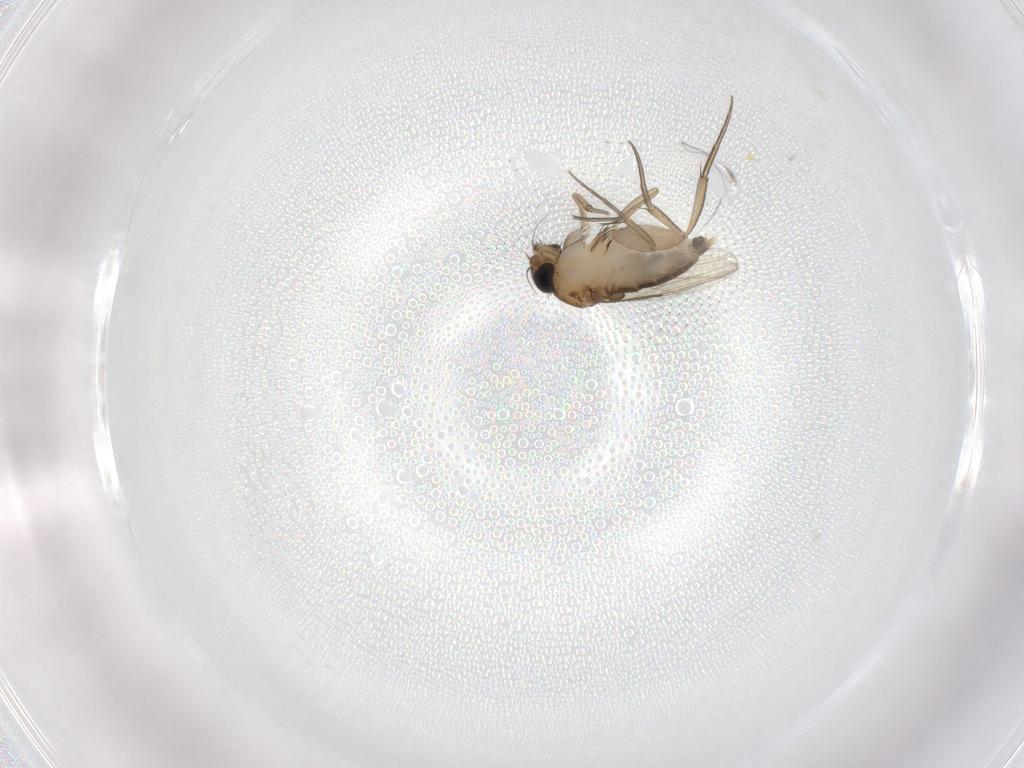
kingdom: Animalia
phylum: Arthropoda
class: Insecta
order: Diptera
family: Phoridae
